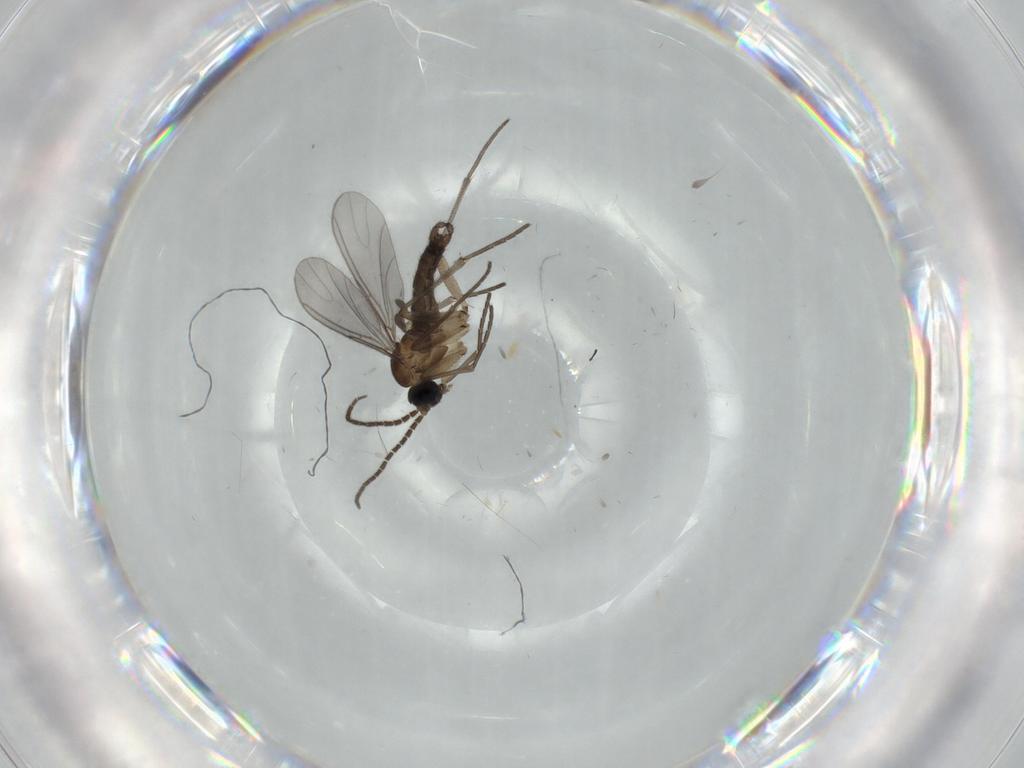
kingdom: Animalia
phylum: Arthropoda
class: Insecta
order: Diptera
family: Sciaridae
